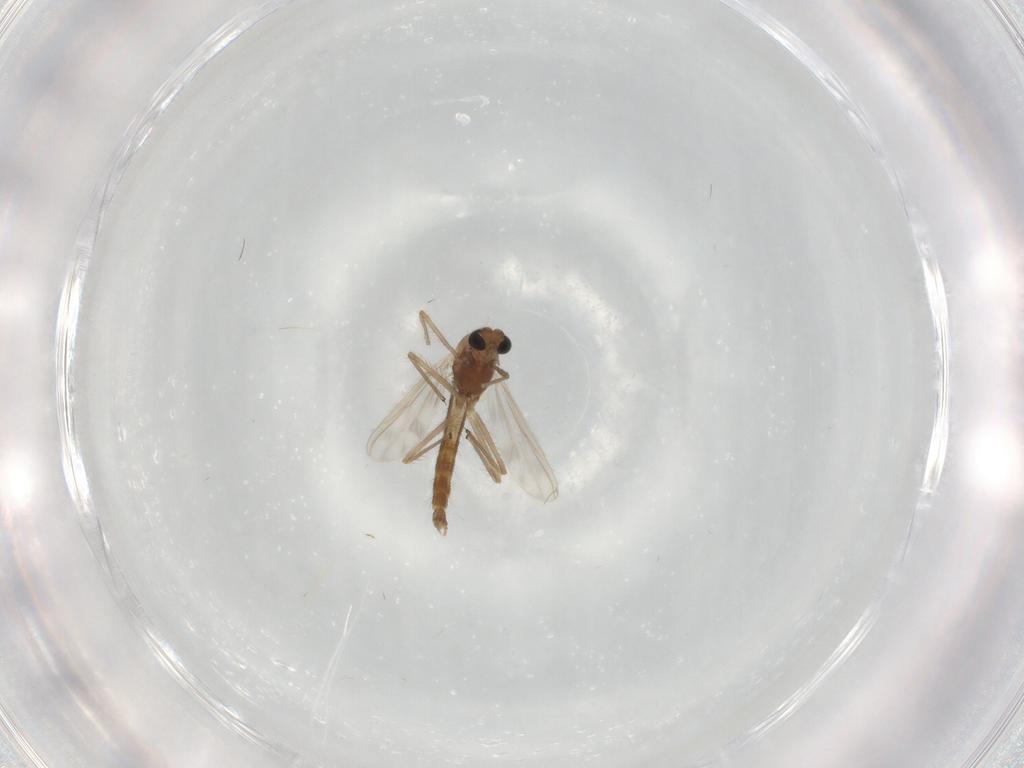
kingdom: Animalia
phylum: Arthropoda
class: Insecta
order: Diptera
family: Chironomidae
